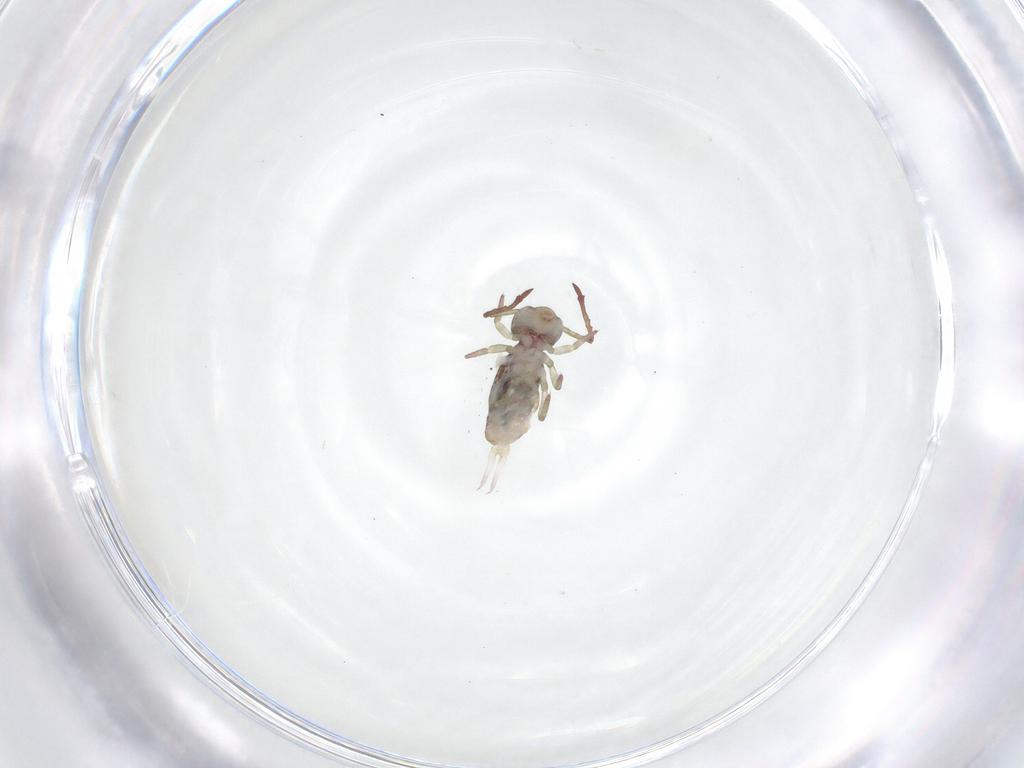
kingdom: Animalia
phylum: Arthropoda
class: Collembola
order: Symphypleona
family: Dicyrtomidae
